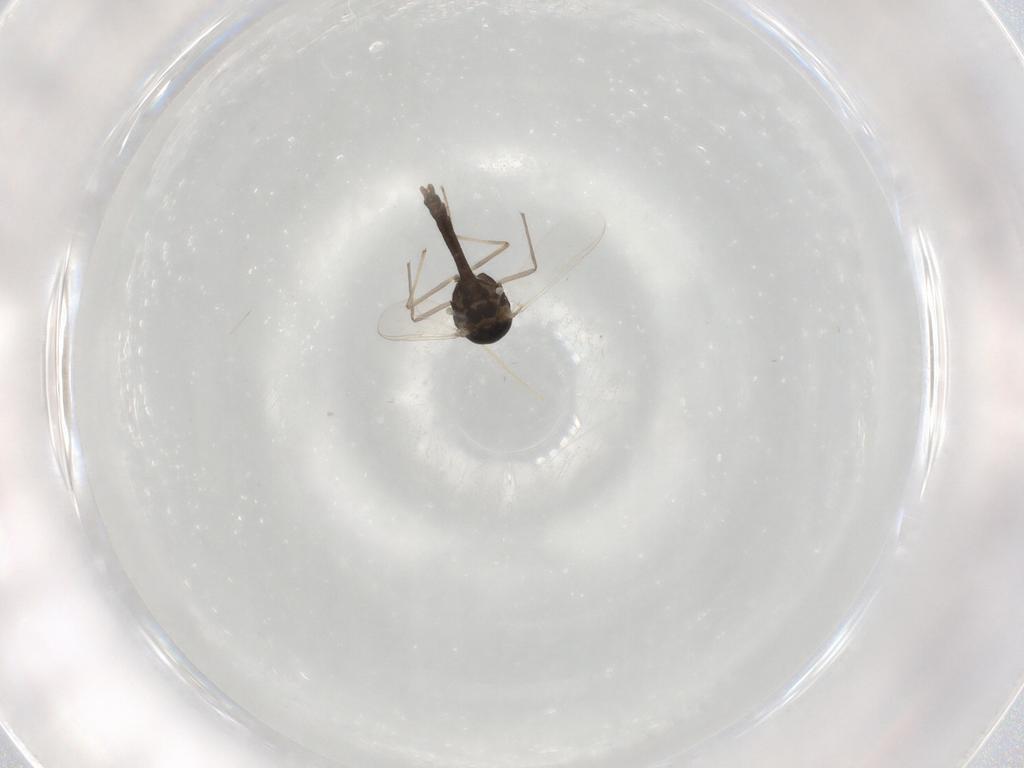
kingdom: Animalia
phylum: Arthropoda
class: Insecta
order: Diptera
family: Chironomidae
